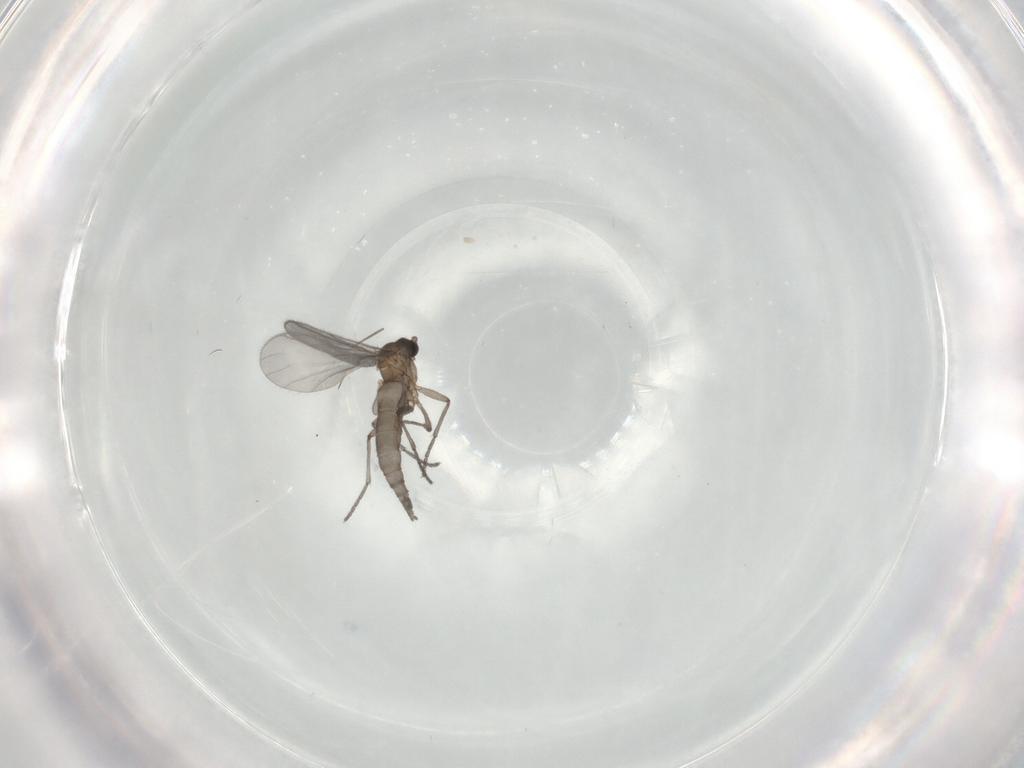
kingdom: Animalia
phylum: Arthropoda
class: Insecta
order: Diptera
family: Sciaridae
